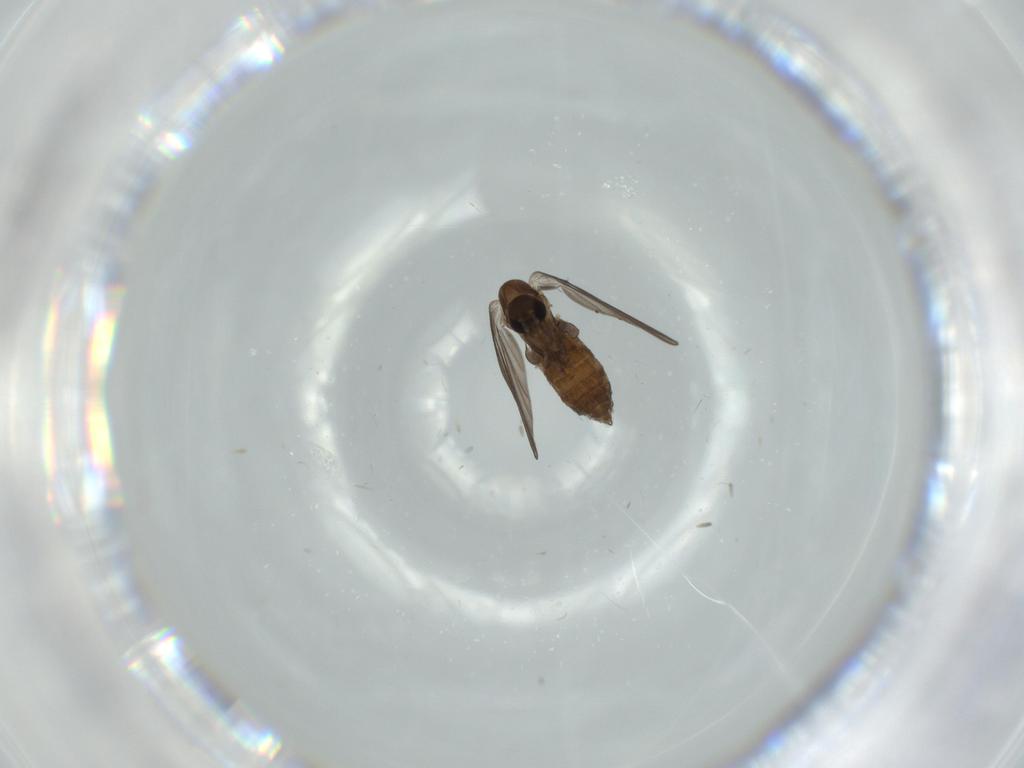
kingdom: Animalia
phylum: Arthropoda
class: Insecta
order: Diptera
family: Psychodidae
